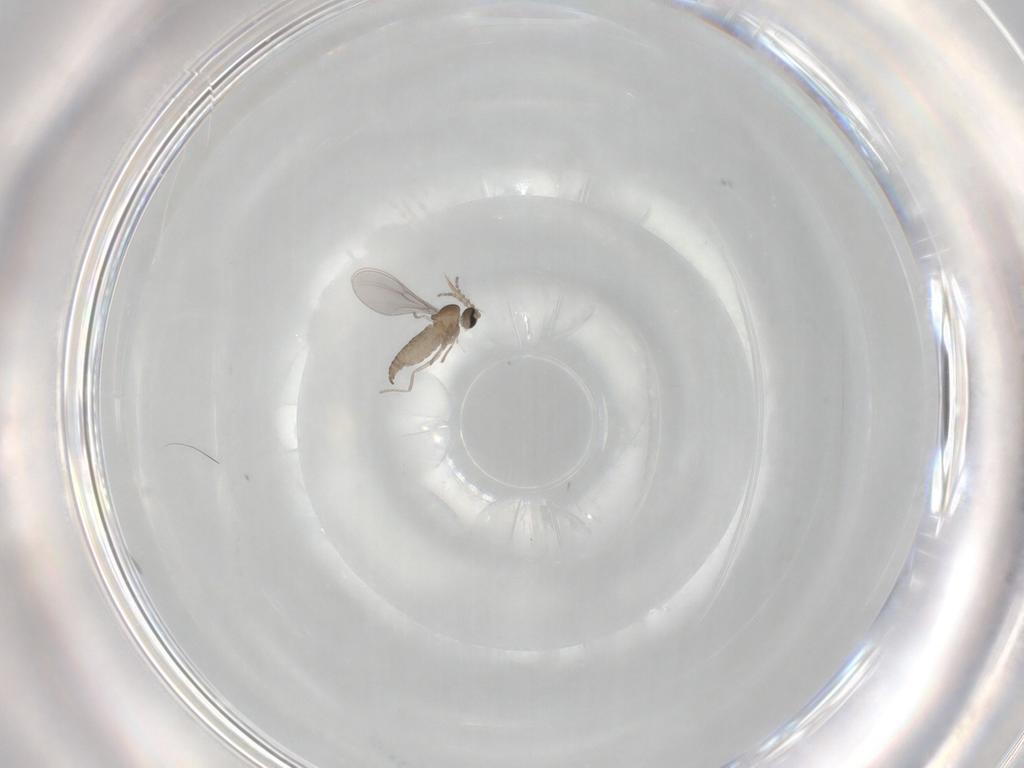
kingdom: Animalia
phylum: Arthropoda
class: Insecta
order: Diptera
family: Cecidomyiidae
